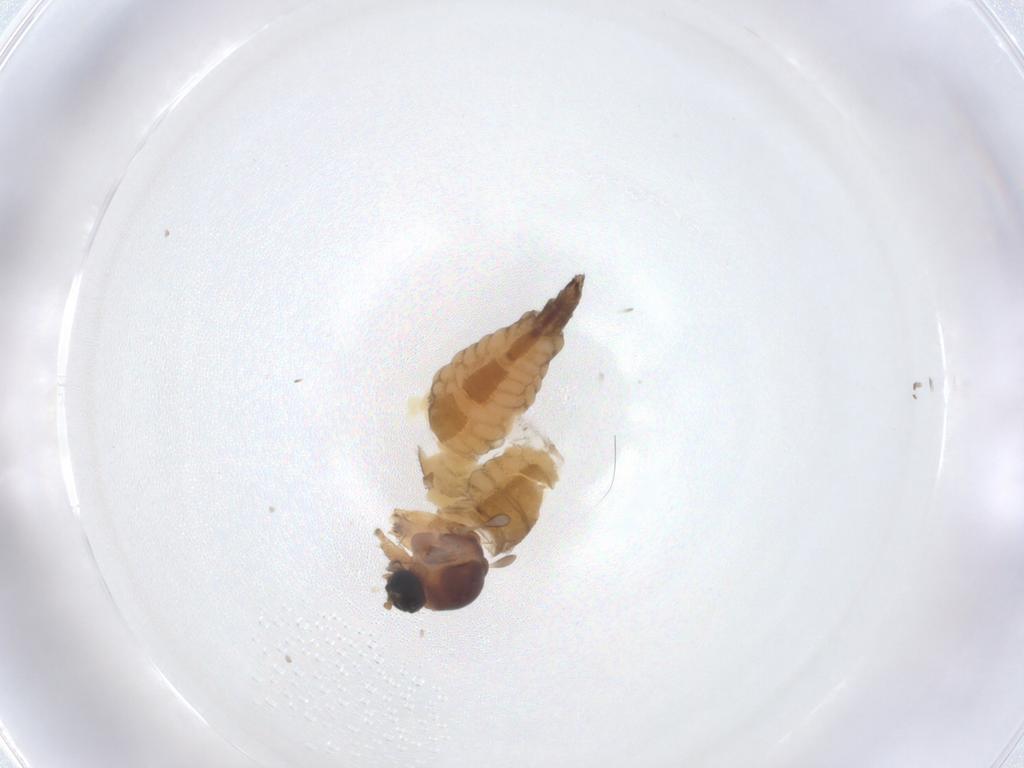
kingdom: Animalia
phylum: Arthropoda
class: Insecta
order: Diptera
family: Sciaridae
